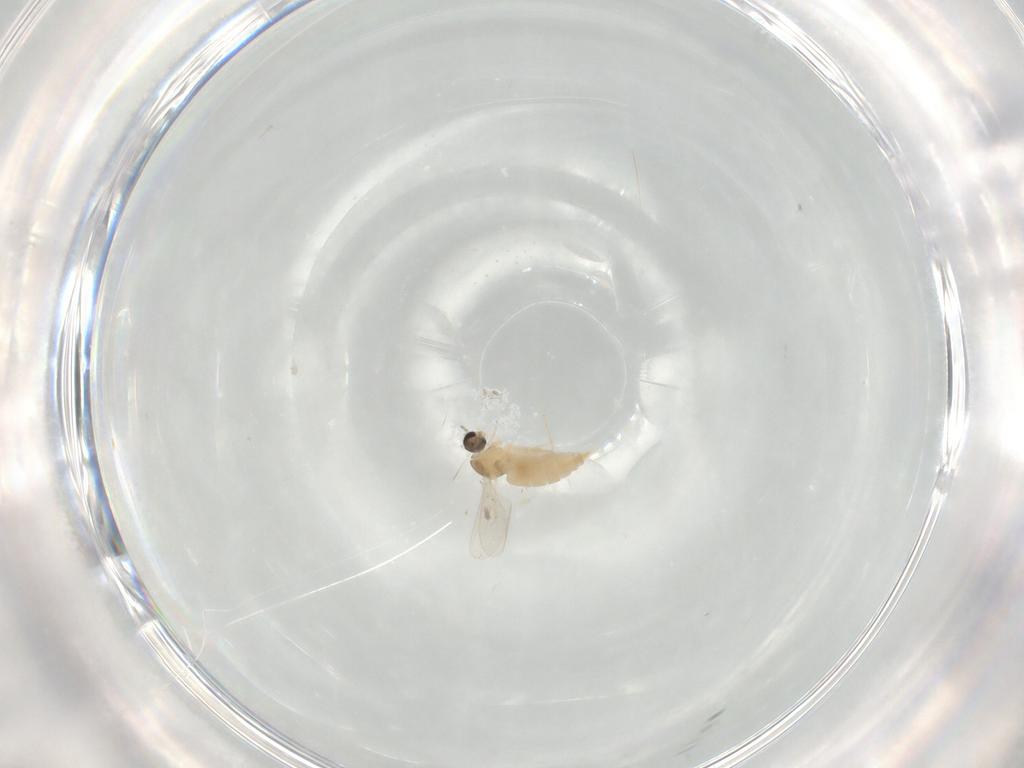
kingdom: Animalia
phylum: Arthropoda
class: Insecta
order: Diptera
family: Cecidomyiidae
